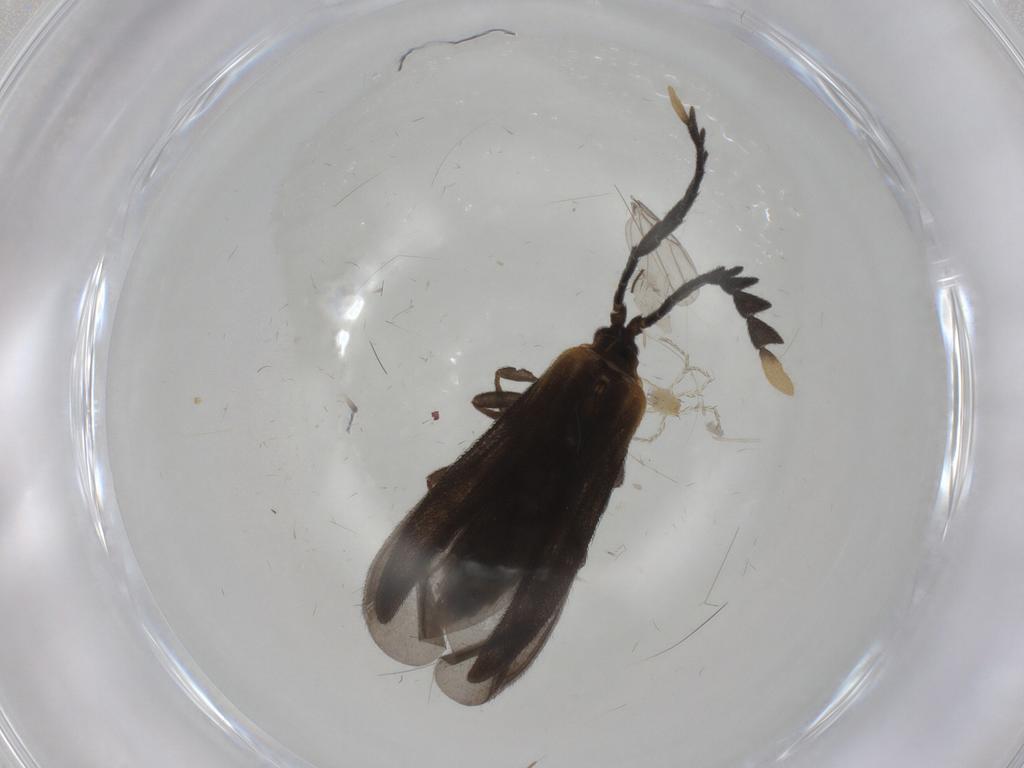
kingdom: Animalia
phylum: Arthropoda
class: Insecta
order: Coleoptera
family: Lycidae
